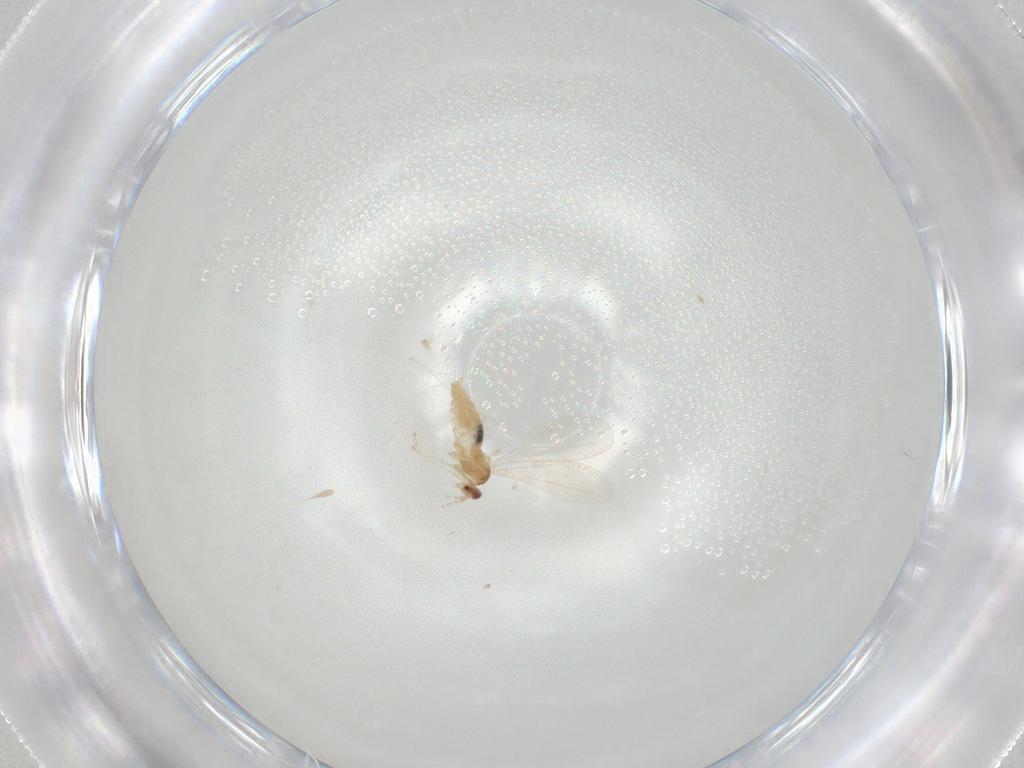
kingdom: Animalia
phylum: Arthropoda
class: Insecta
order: Diptera
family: Cecidomyiidae
